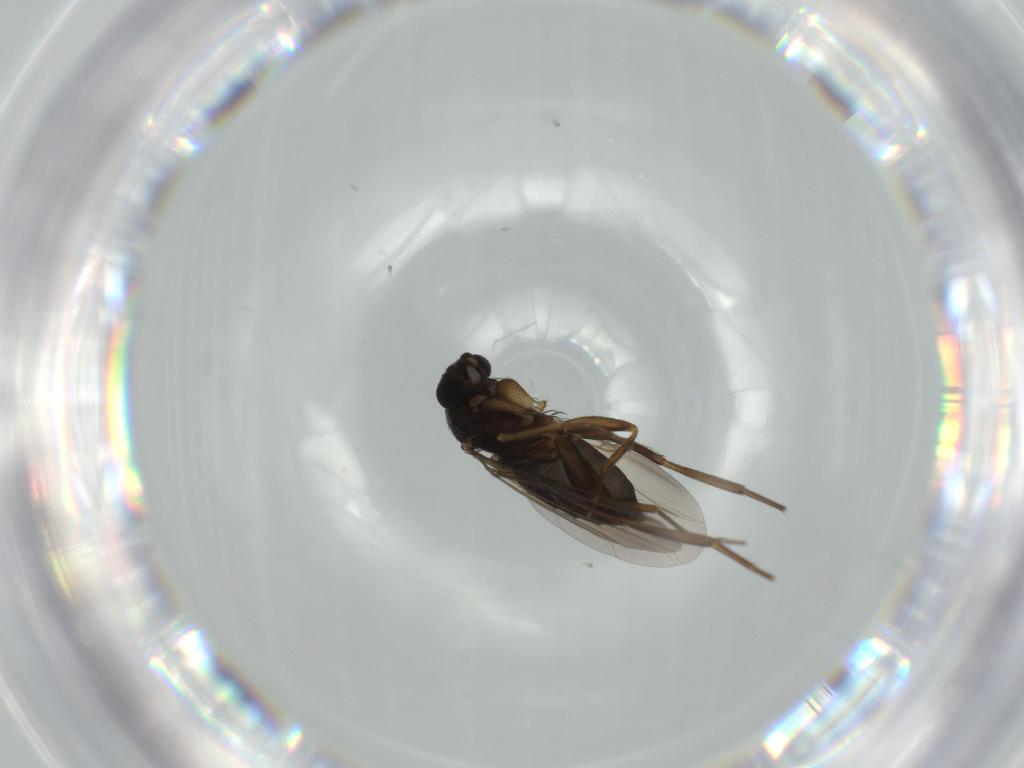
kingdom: Animalia
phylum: Arthropoda
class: Insecta
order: Diptera
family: Phoridae
